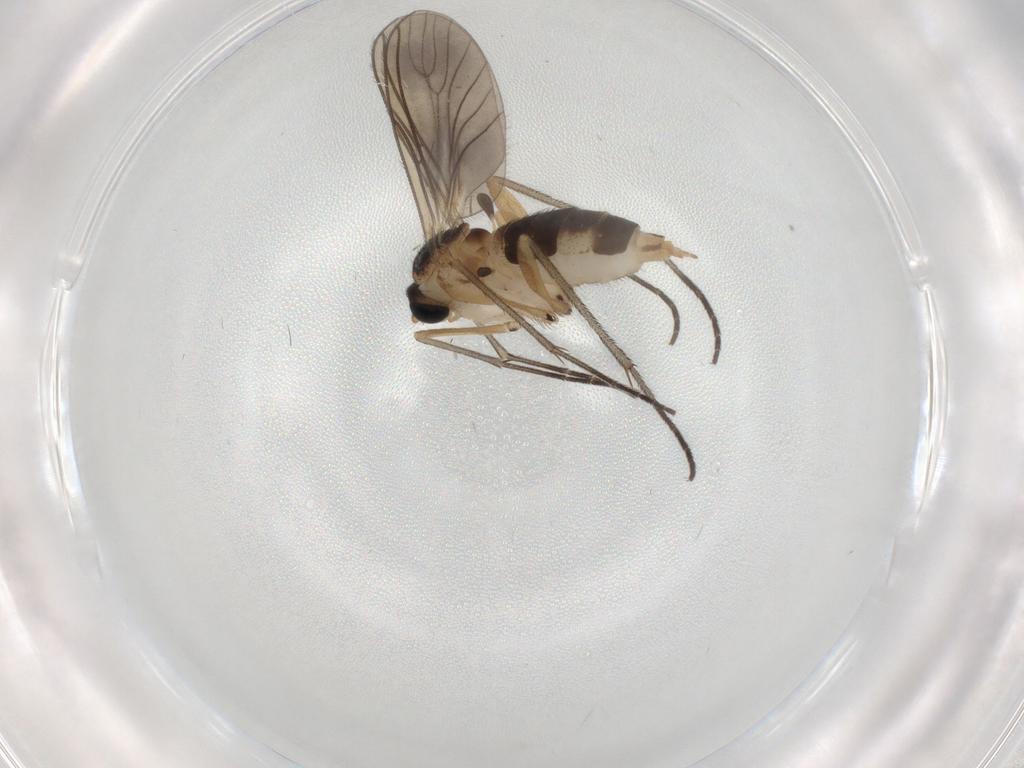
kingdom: Animalia
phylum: Arthropoda
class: Insecta
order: Diptera
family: Sciaridae
